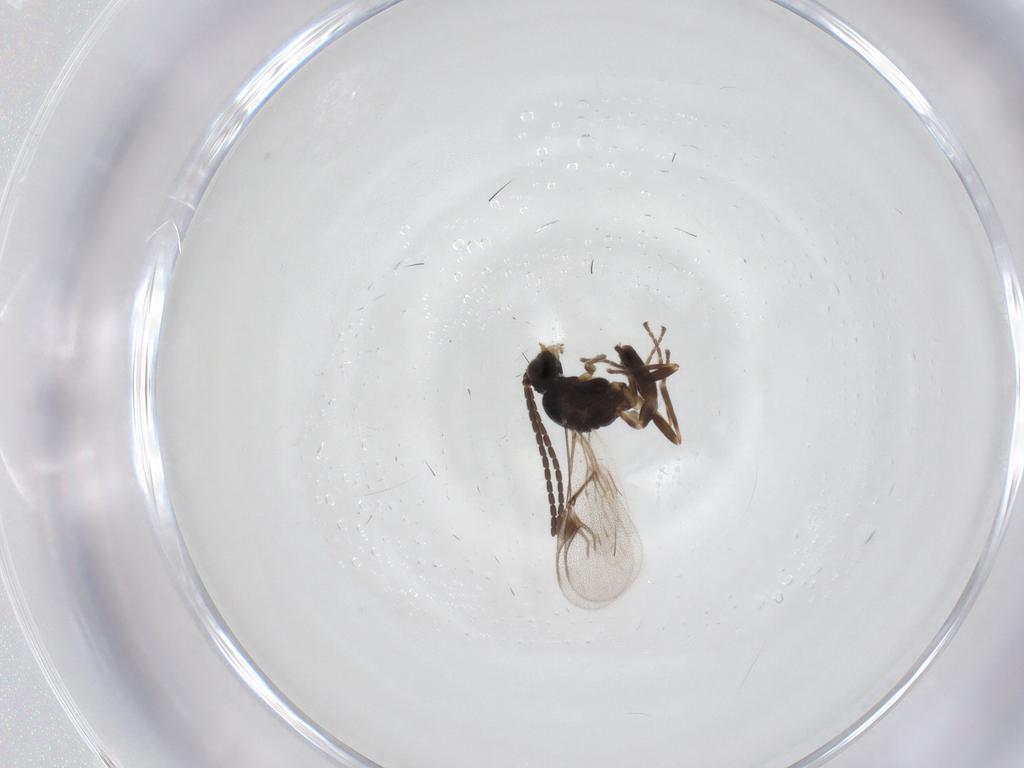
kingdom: Animalia
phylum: Arthropoda
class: Insecta
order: Hymenoptera
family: Braconidae
